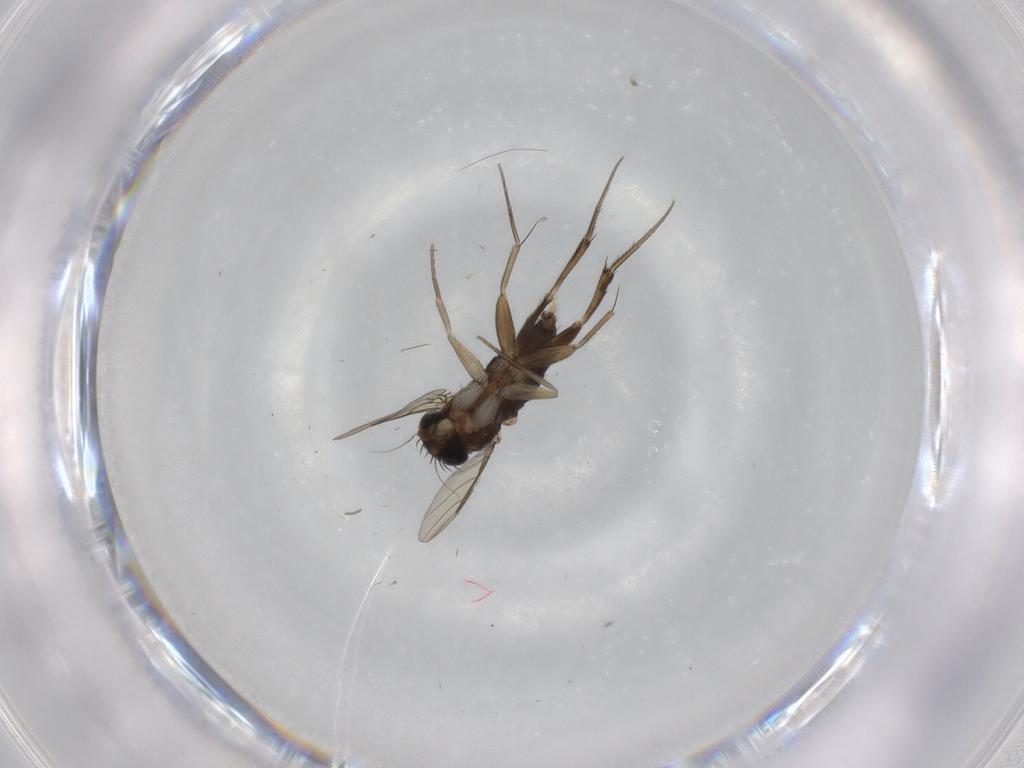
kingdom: Animalia
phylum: Arthropoda
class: Insecta
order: Diptera
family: Phoridae
